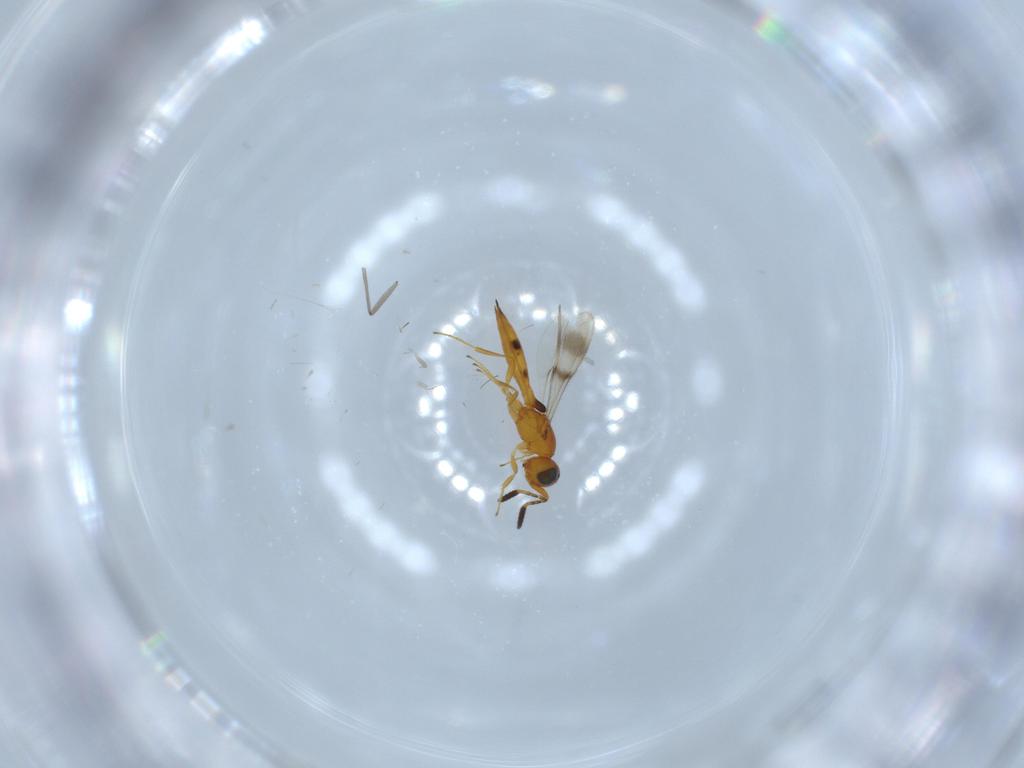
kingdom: Animalia
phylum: Arthropoda
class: Insecta
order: Hymenoptera
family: Scelionidae
